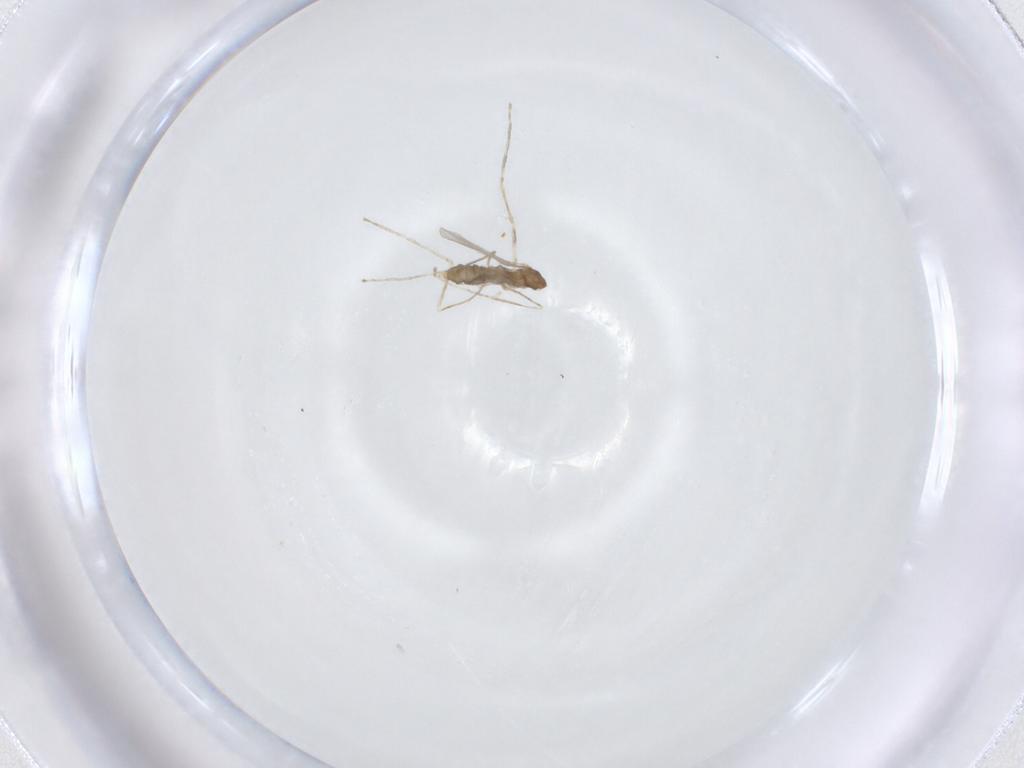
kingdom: Animalia
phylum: Arthropoda
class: Insecta
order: Diptera
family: Cecidomyiidae
